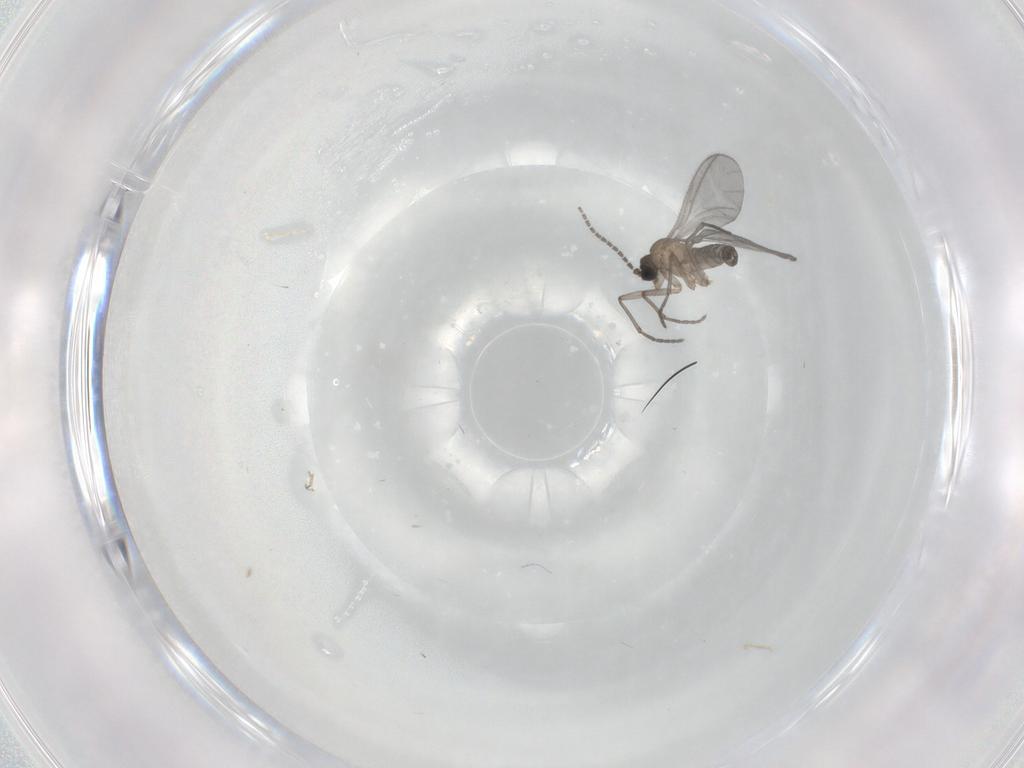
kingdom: Animalia
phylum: Arthropoda
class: Insecta
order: Diptera
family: Sciaridae
